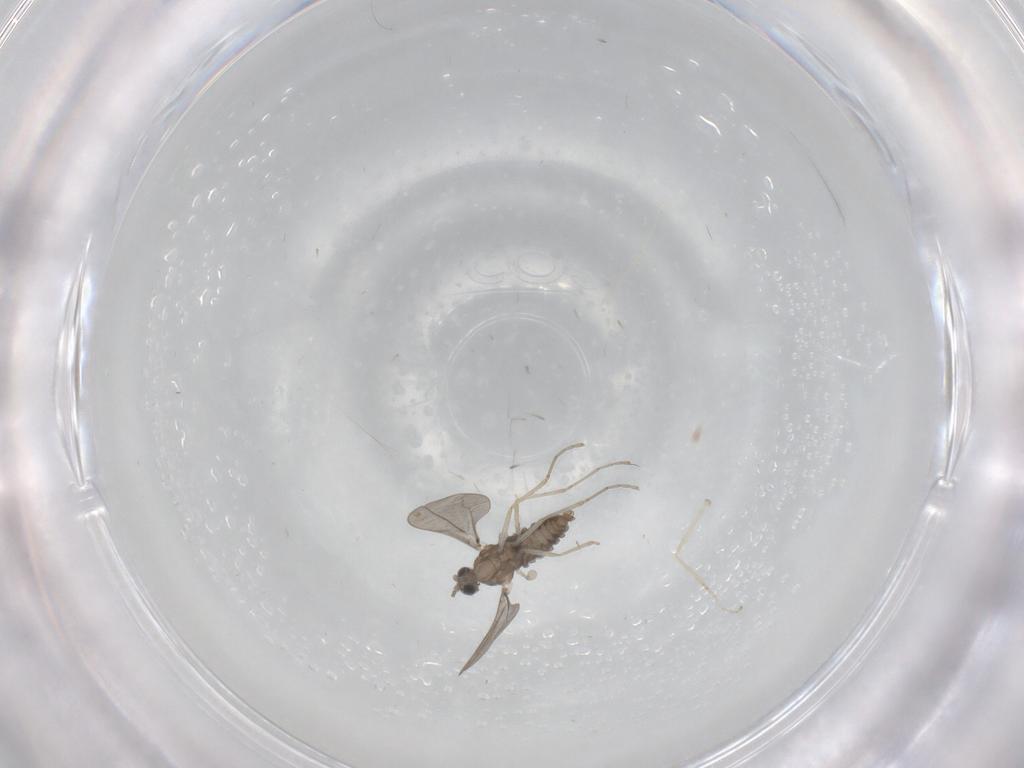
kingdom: Animalia
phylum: Arthropoda
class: Insecta
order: Diptera
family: Cecidomyiidae
